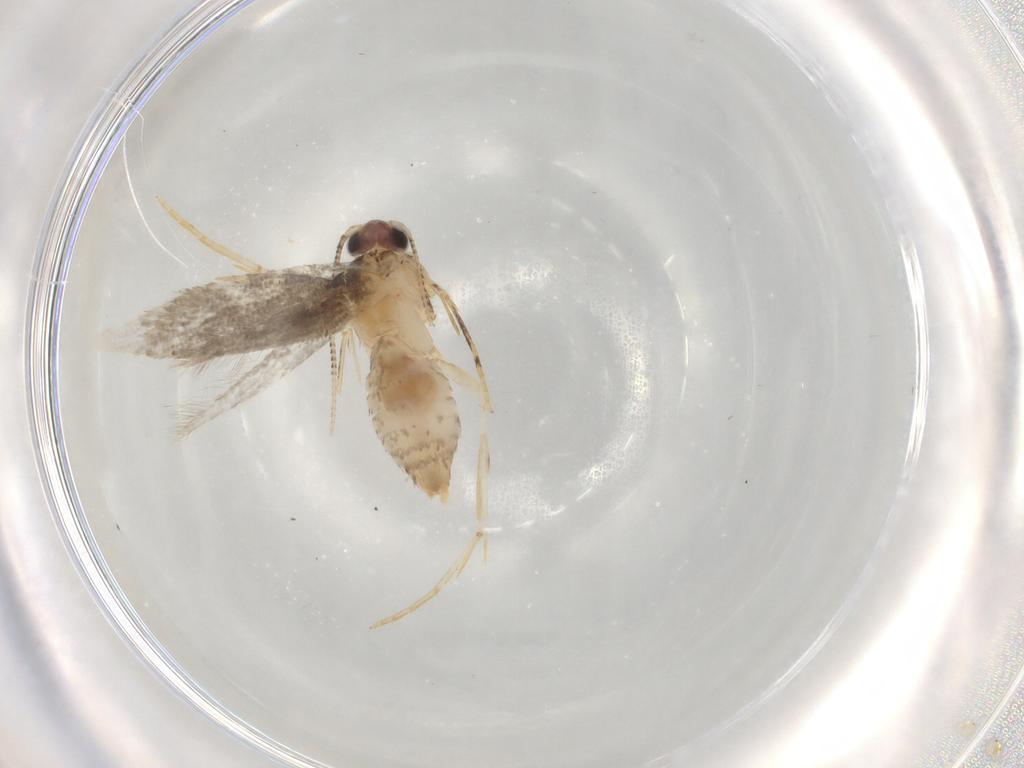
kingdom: Animalia
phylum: Arthropoda
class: Insecta
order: Lepidoptera
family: Tineidae
